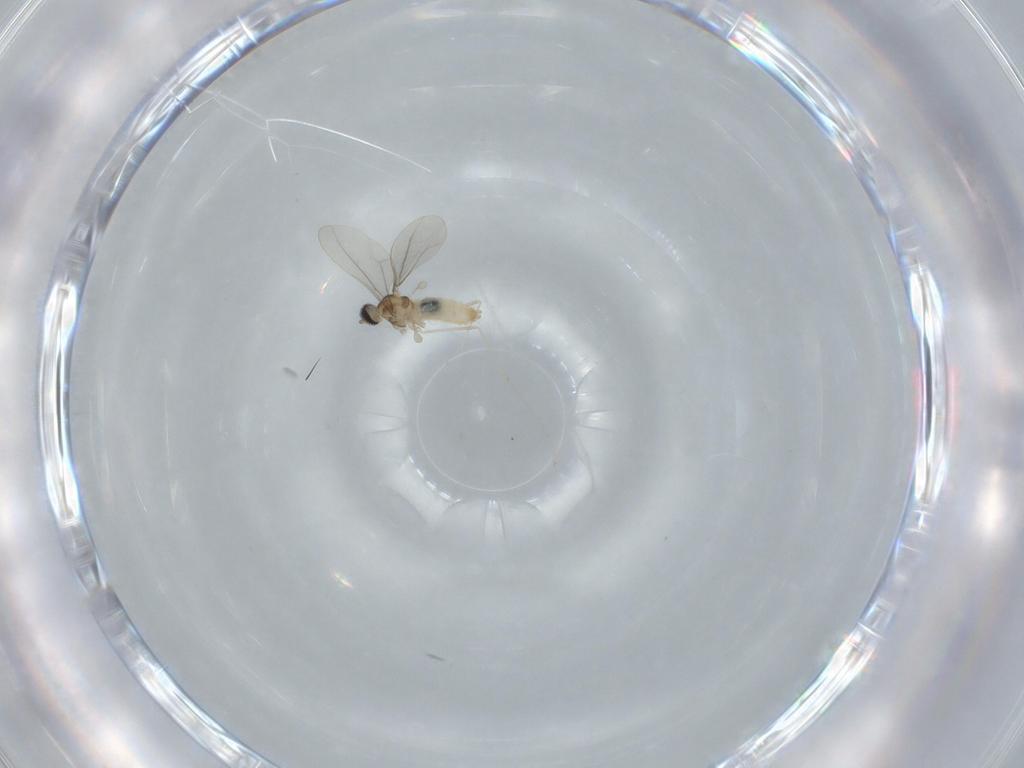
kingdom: Animalia
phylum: Arthropoda
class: Insecta
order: Diptera
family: Cecidomyiidae
